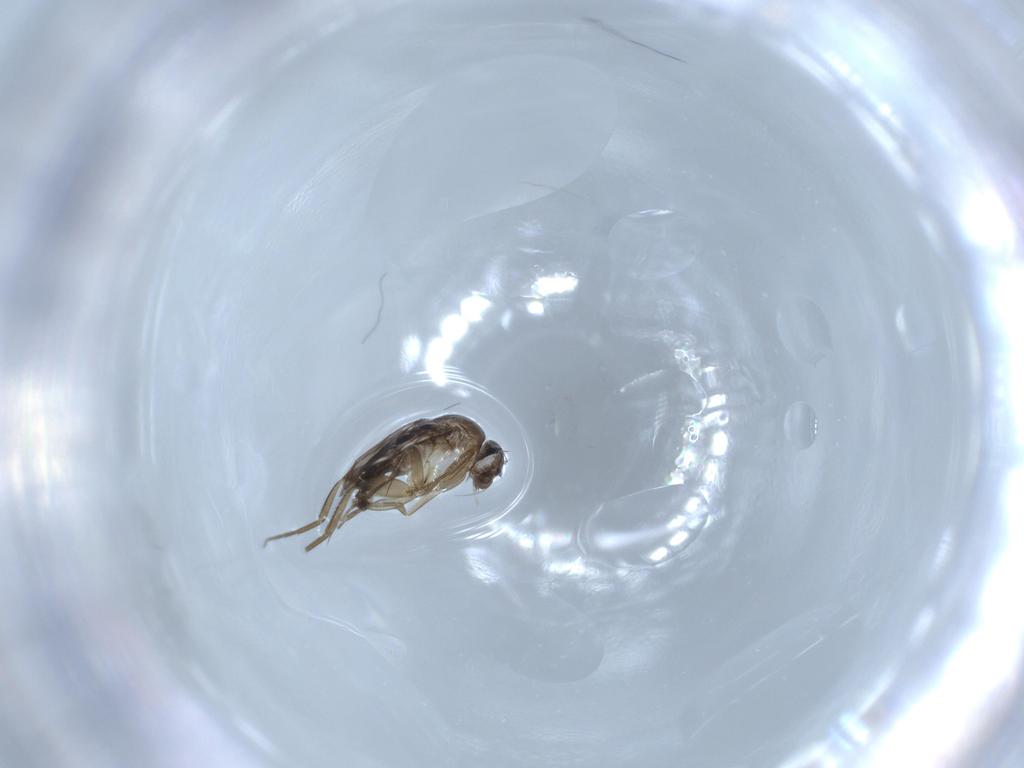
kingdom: Animalia
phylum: Arthropoda
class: Insecta
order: Diptera
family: Phoridae
